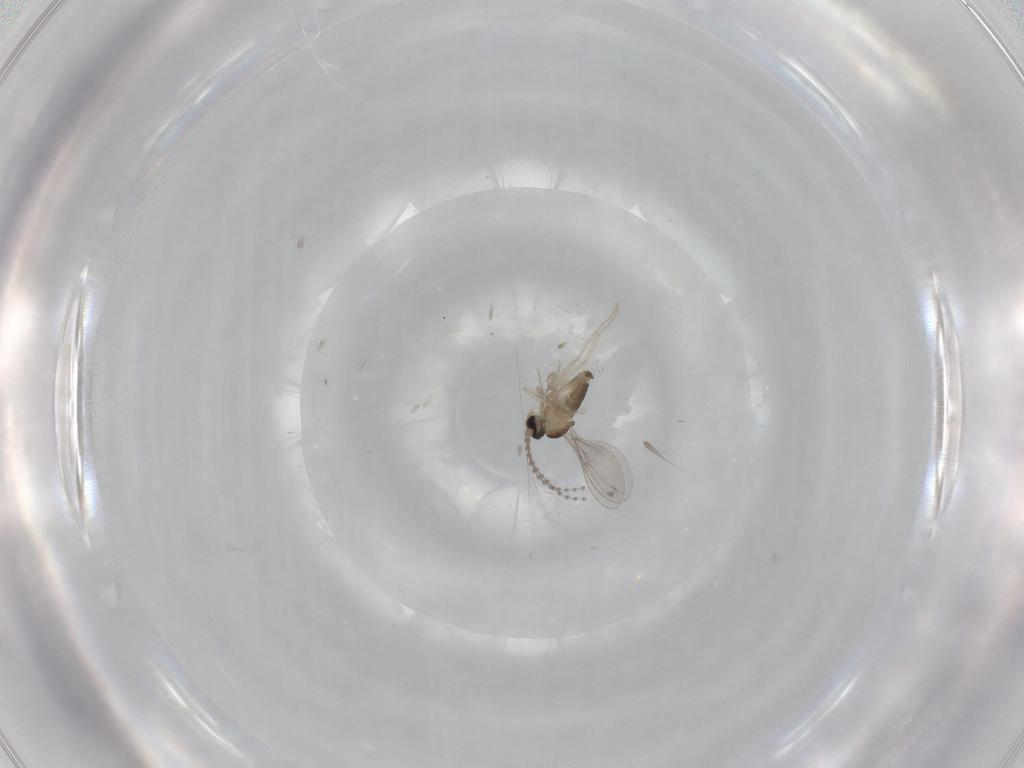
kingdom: Animalia
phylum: Arthropoda
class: Insecta
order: Diptera
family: Cecidomyiidae
